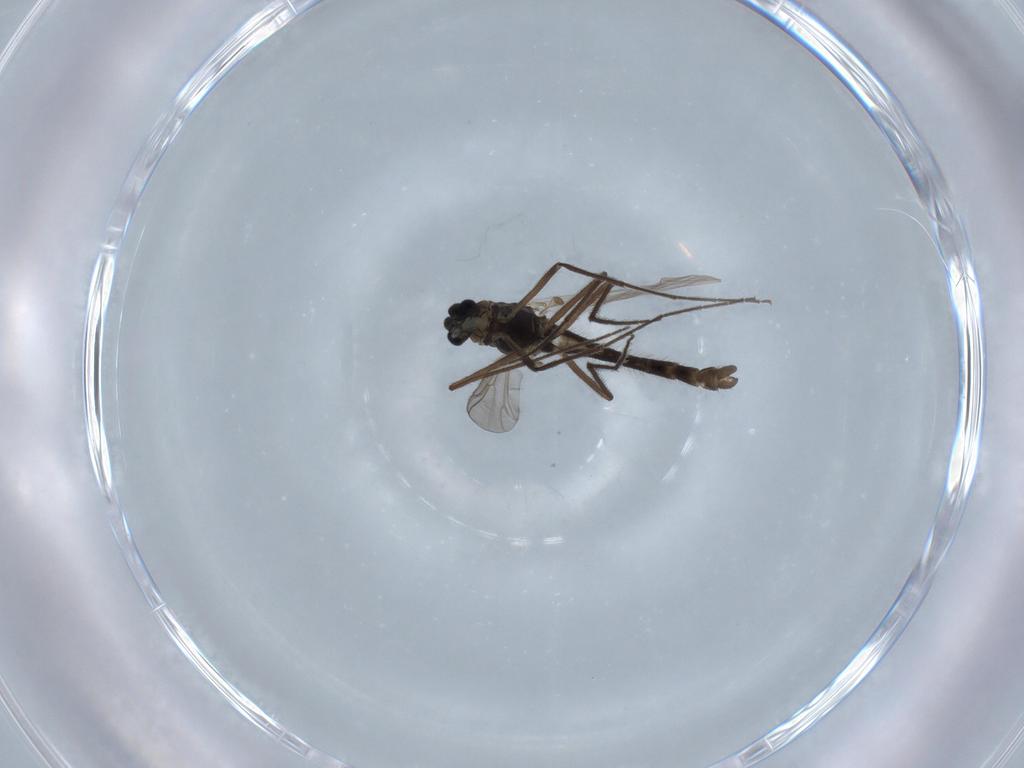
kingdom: Animalia
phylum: Arthropoda
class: Insecta
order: Diptera
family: Chironomidae
